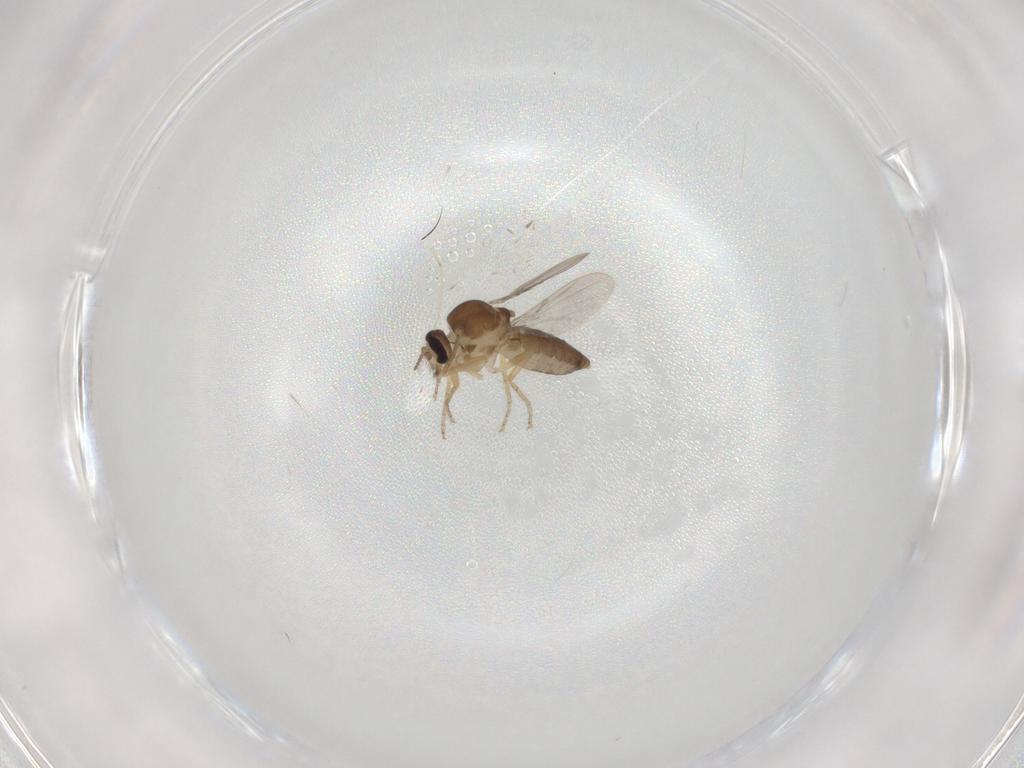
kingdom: Animalia
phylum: Arthropoda
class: Insecta
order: Diptera
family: Ceratopogonidae
